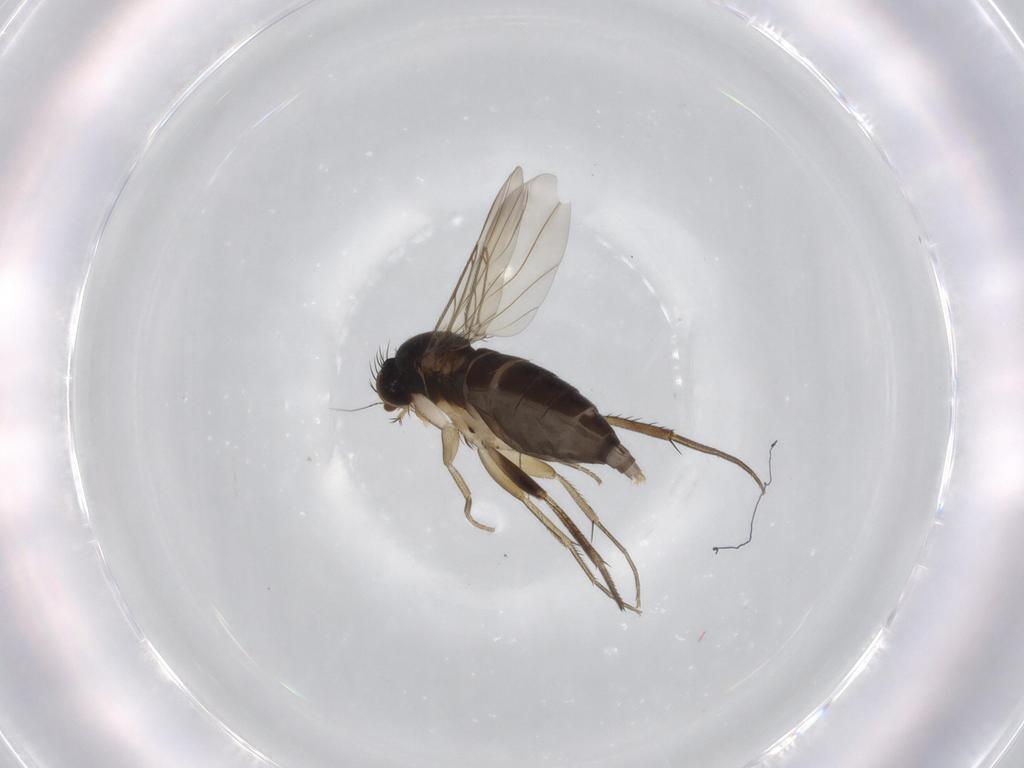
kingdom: Animalia
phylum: Arthropoda
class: Insecta
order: Diptera
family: Phoridae
